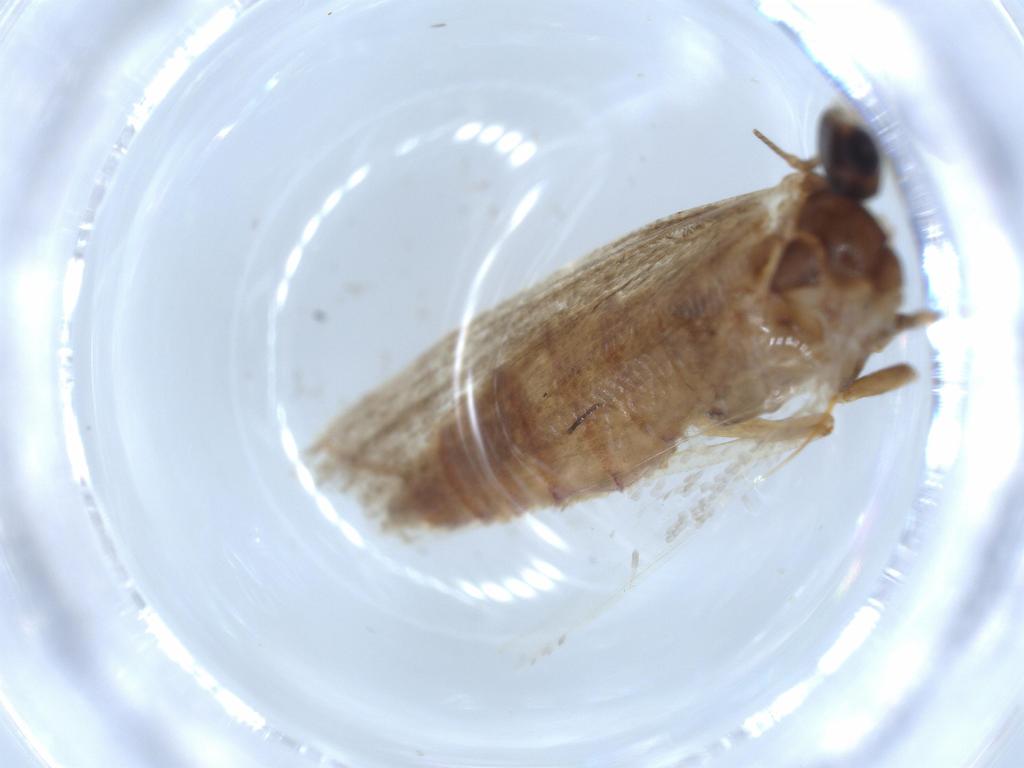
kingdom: Animalia
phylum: Arthropoda
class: Insecta
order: Lepidoptera
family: Blastobasidae
